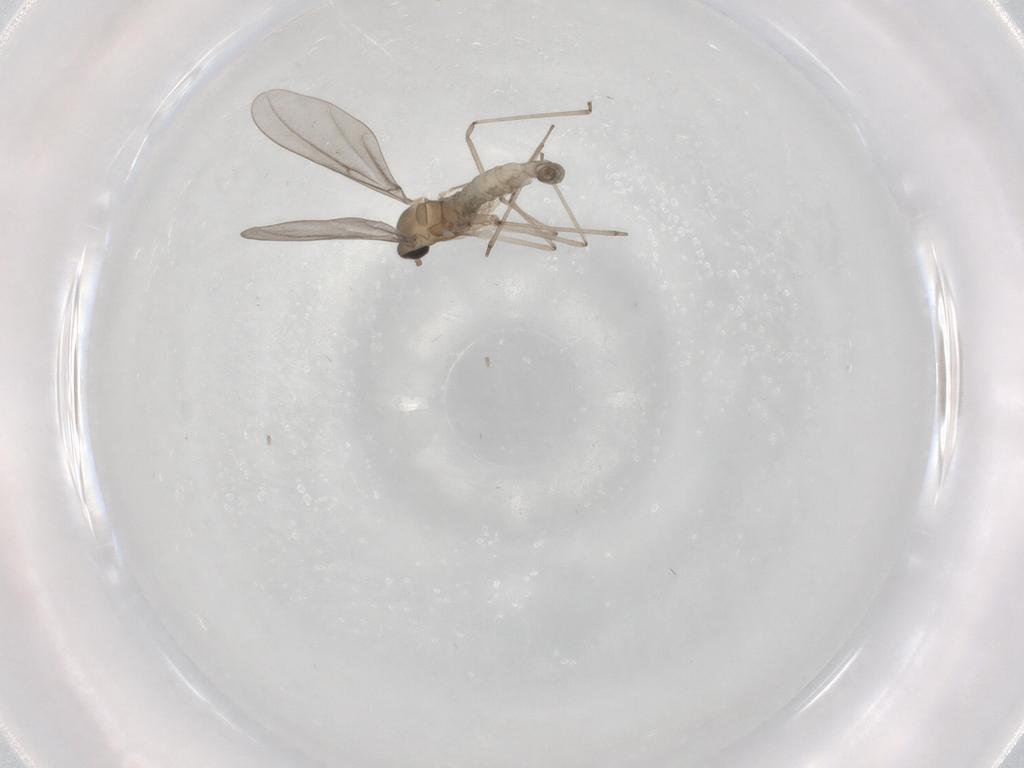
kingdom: Animalia
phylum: Arthropoda
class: Insecta
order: Diptera
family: Cecidomyiidae
